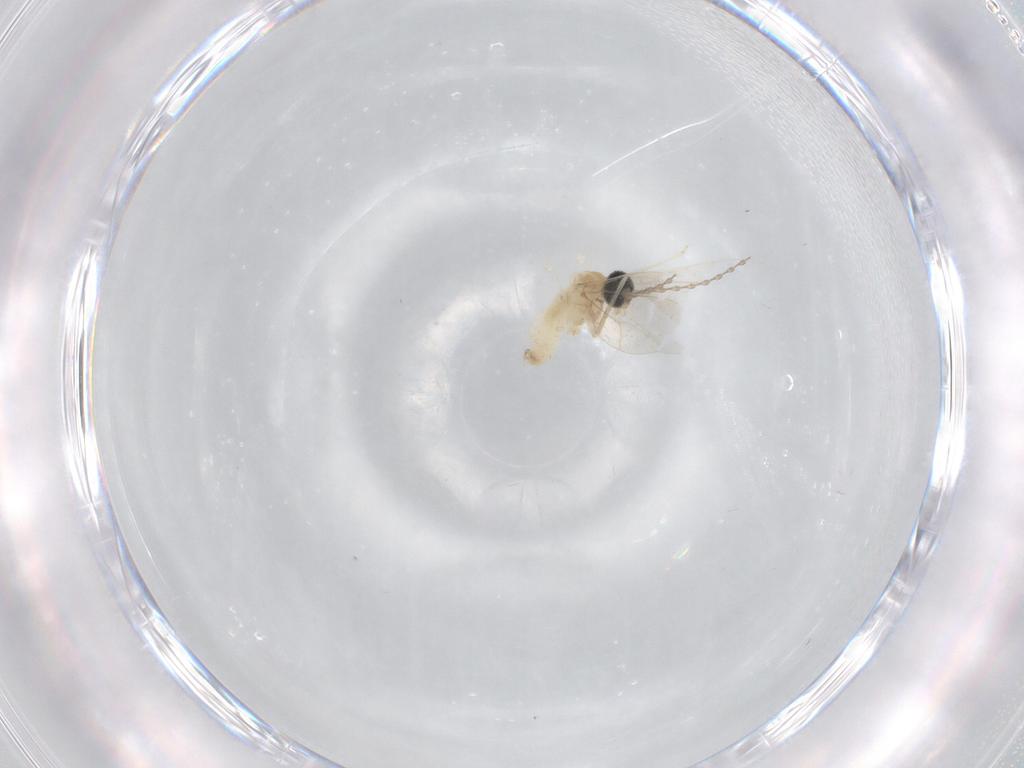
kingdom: Animalia
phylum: Arthropoda
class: Insecta
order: Diptera
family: Cecidomyiidae
